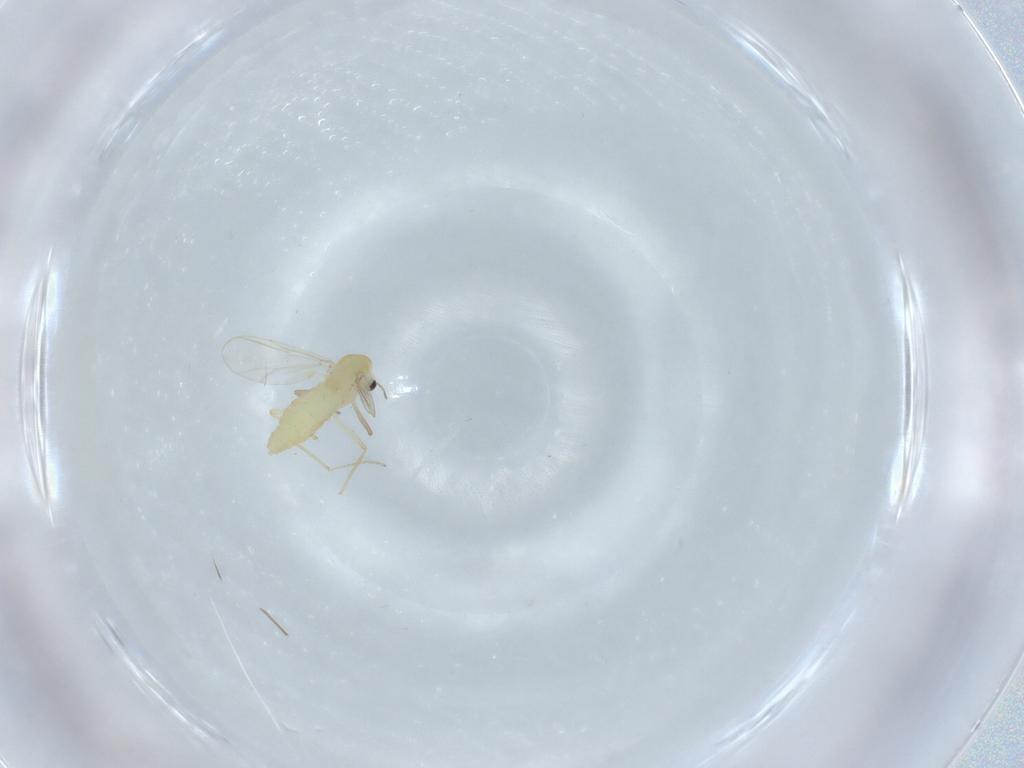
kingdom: Animalia
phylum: Arthropoda
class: Insecta
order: Diptera
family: Chironomidae
